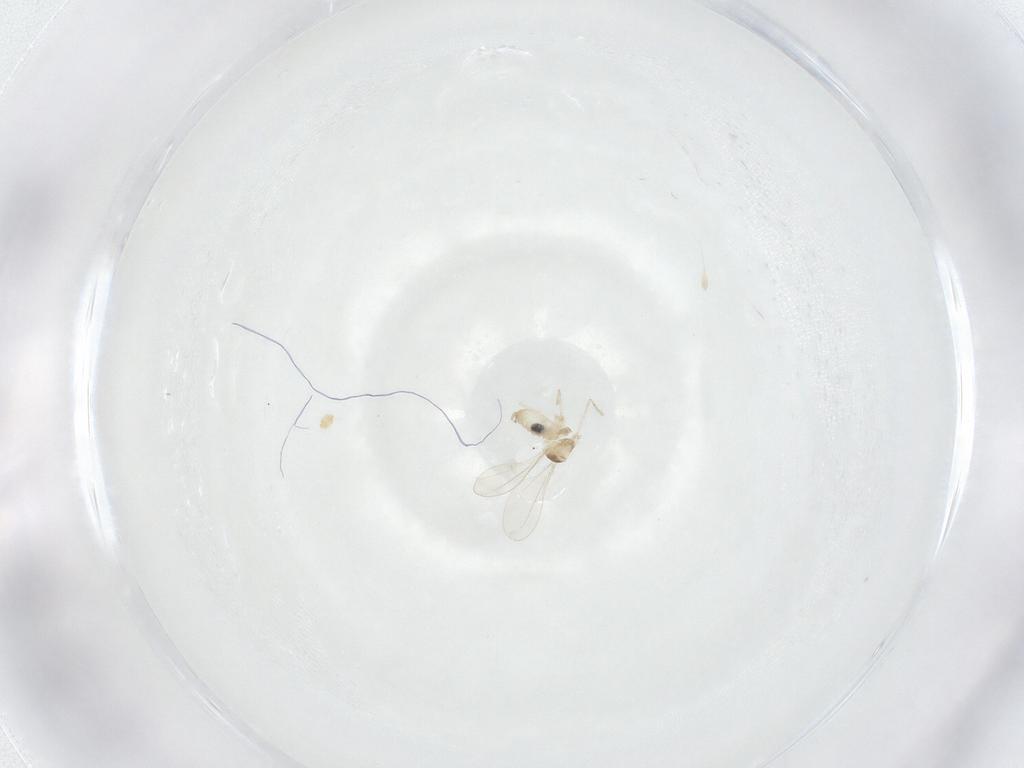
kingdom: Animalia
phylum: Arthropoda
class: Insecta
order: Diptera
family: Cecidomyiidae
